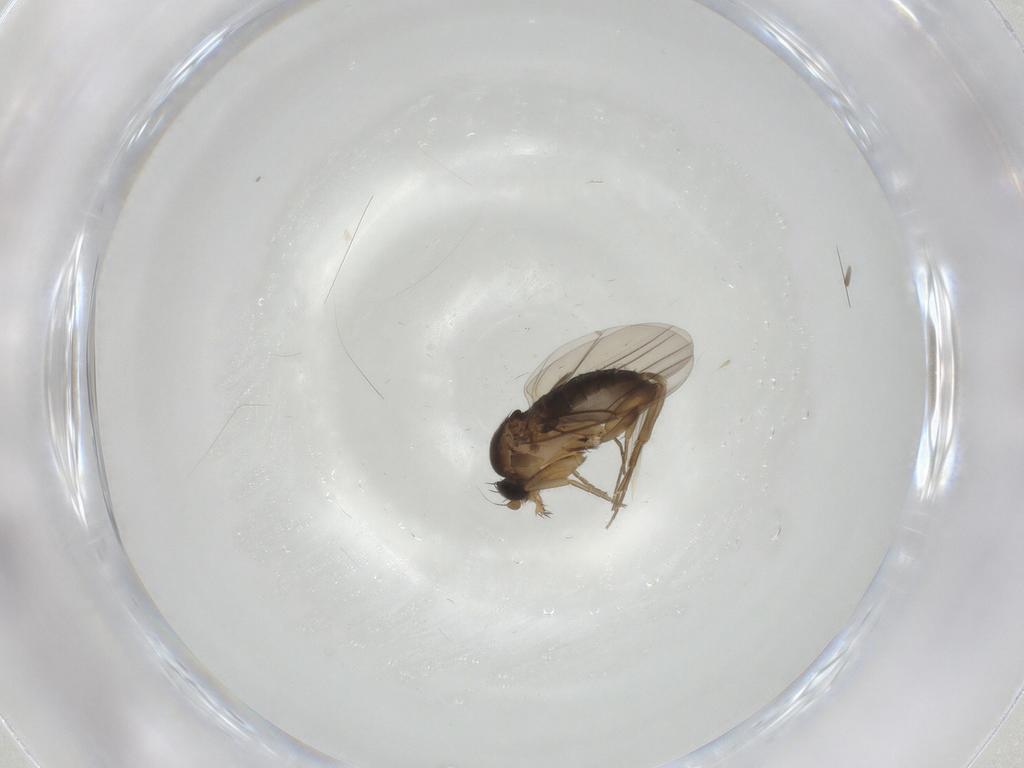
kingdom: Animalia
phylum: Arthropoda
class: Insecta
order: Diptera
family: Phoridae
